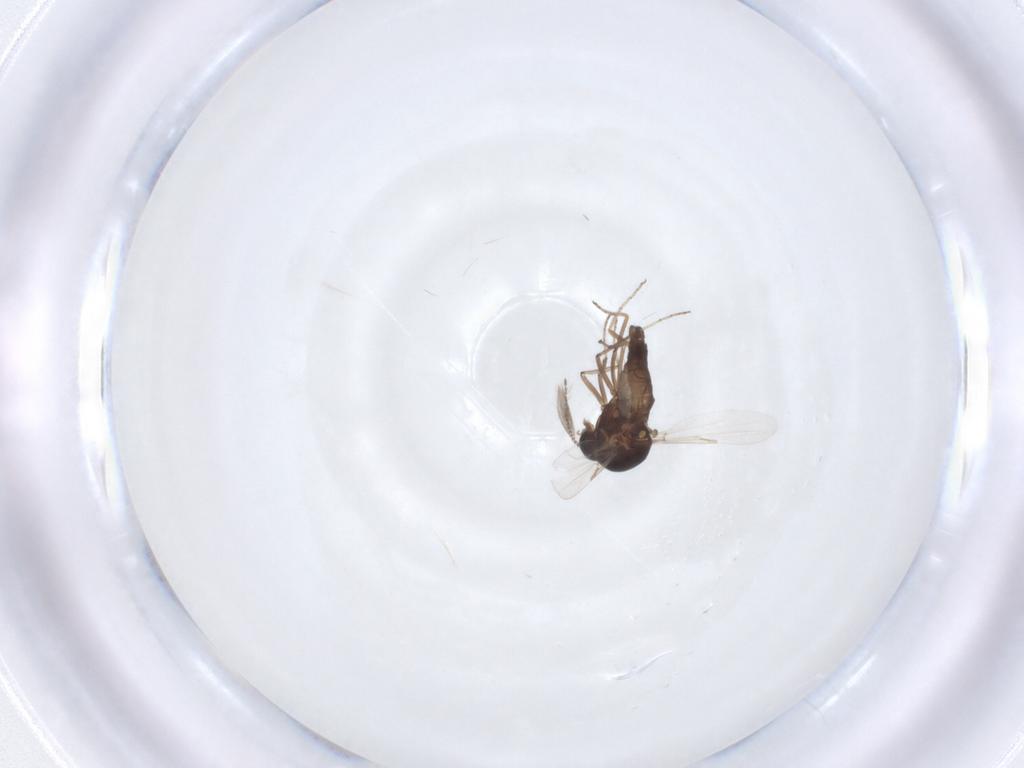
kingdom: Animalia
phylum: Arthropoda
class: Insecta
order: Diptera
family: Ceratopogonidae
